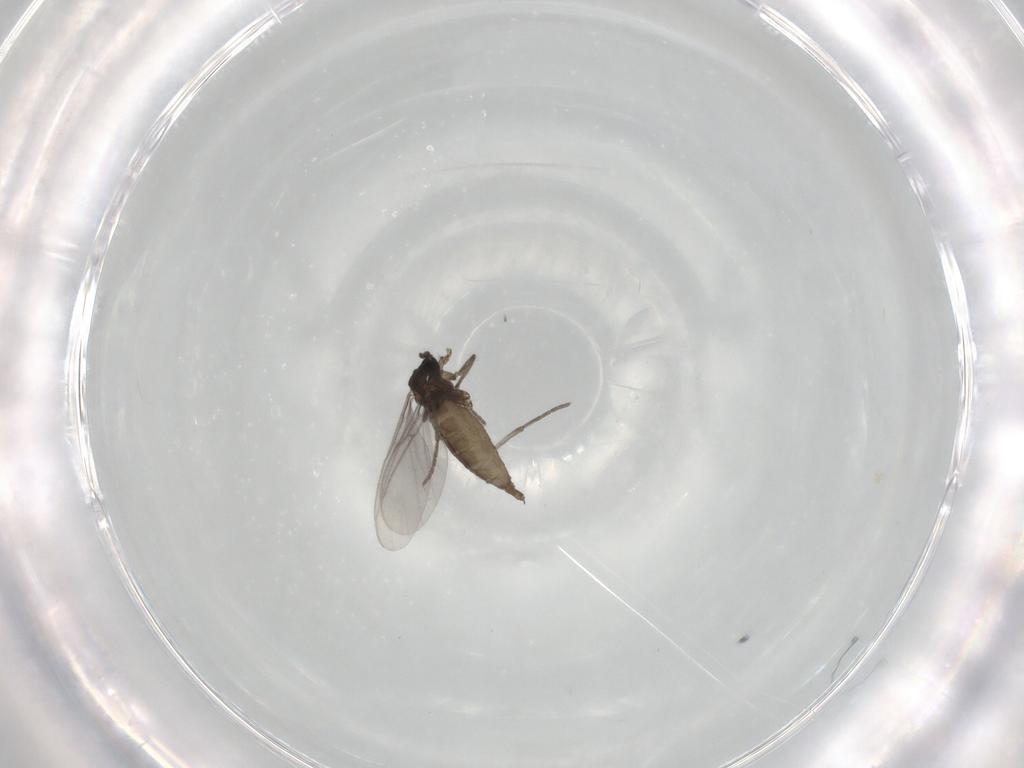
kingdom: Animalia
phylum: Arthropoda
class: Insecta
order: Diptera
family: Sciaridae
